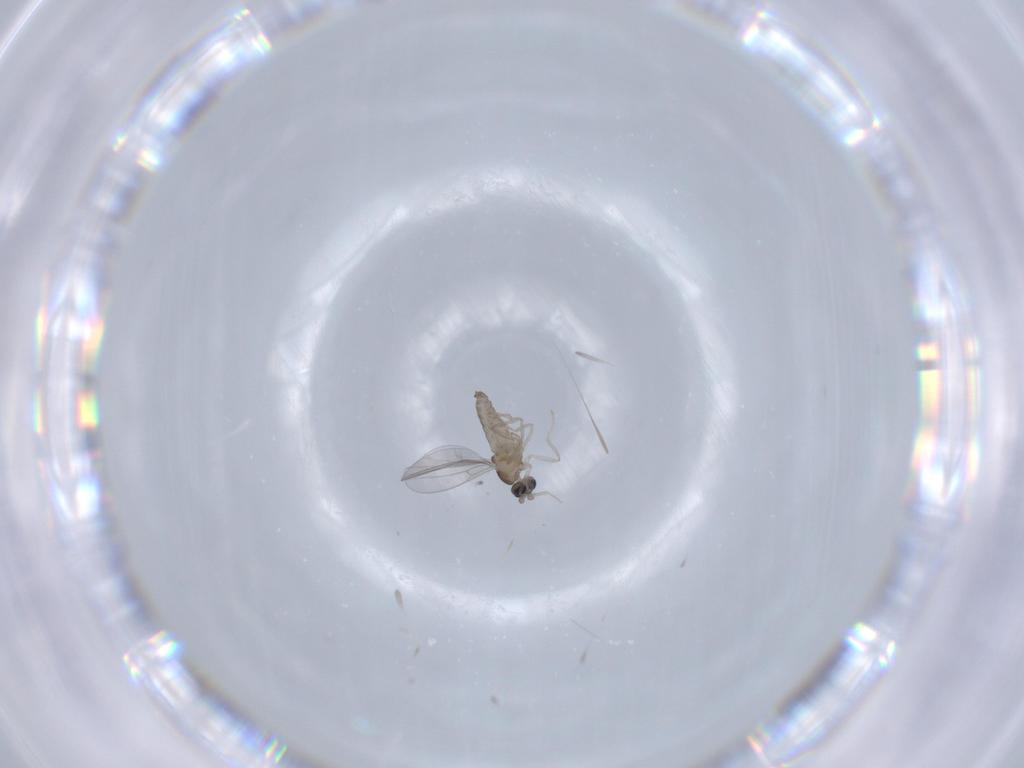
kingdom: Animalia
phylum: Arthropoda
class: Insecta
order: Diptera
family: Cecidomyiidae
